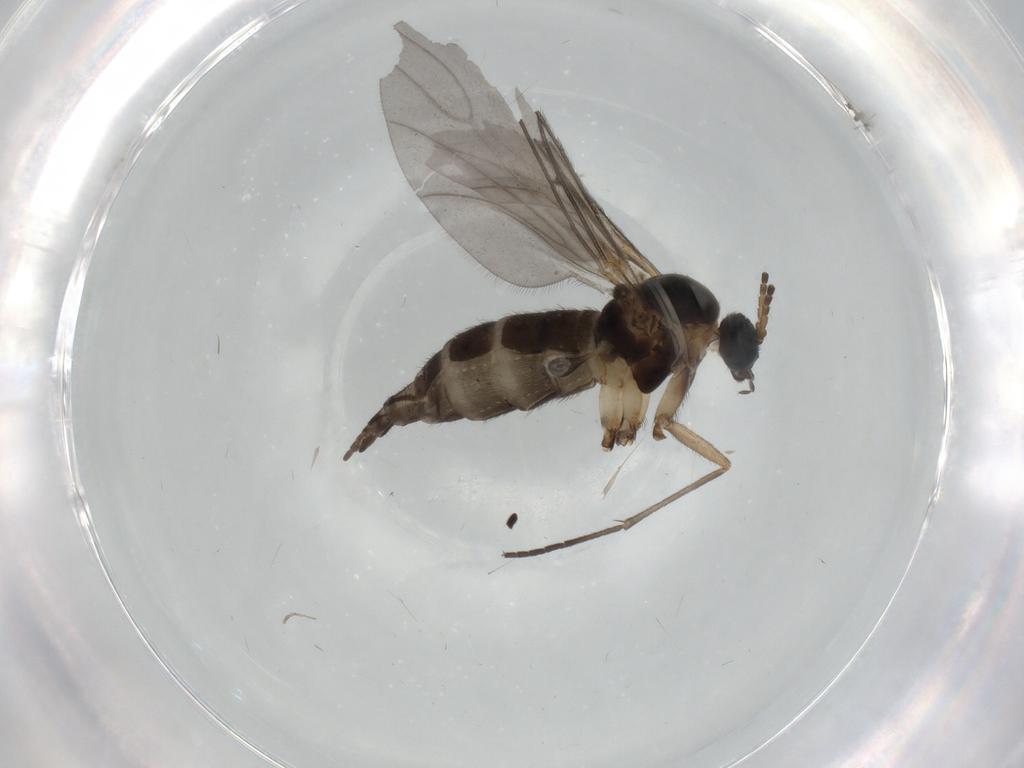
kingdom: Animalia
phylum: Arthropoda
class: Insecta
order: Diptera
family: Sciaridae
